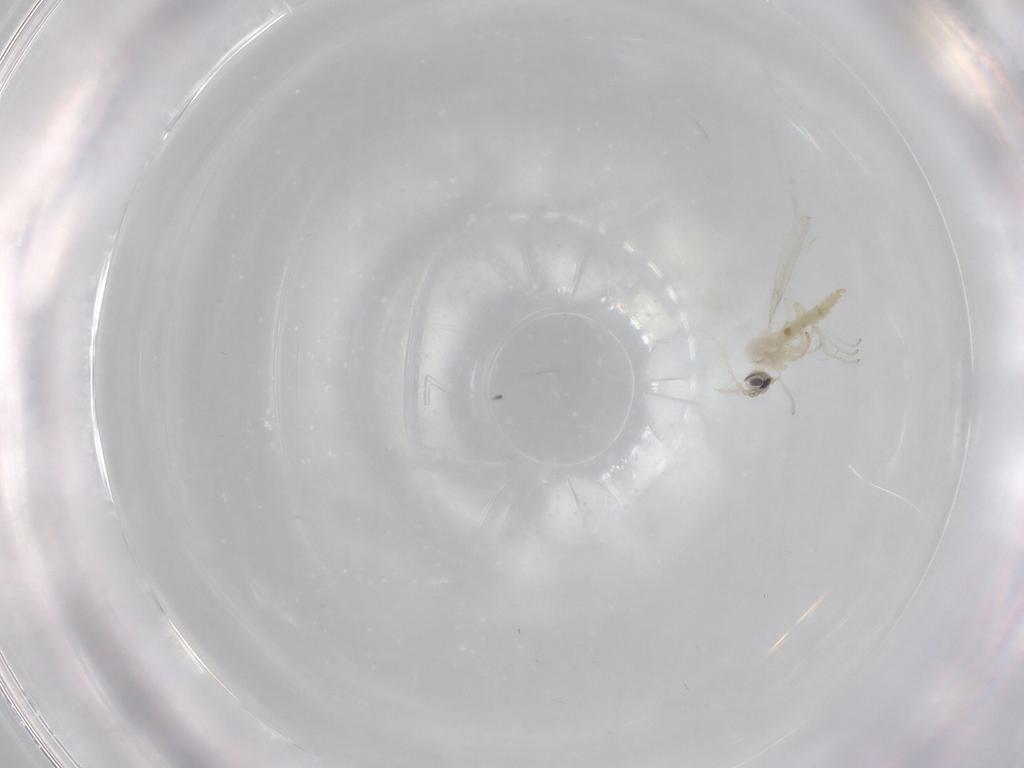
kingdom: Animalia
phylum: Arthropoda
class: Insecta
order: Diptera
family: Cecidomyiidae
